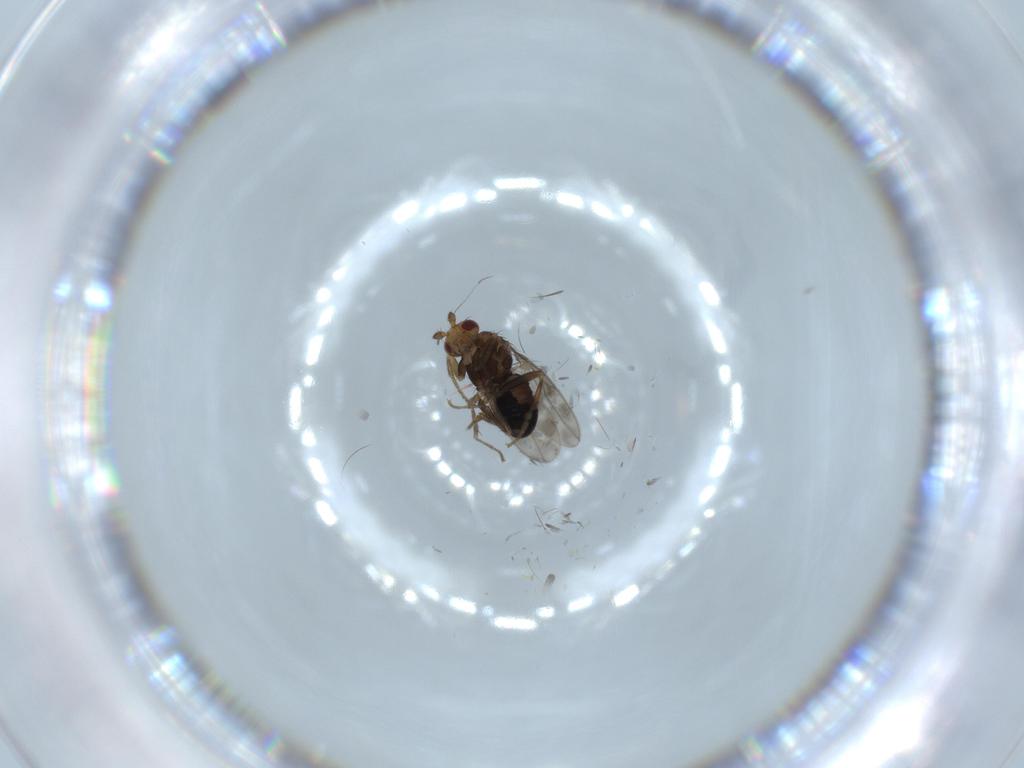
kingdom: Animalia
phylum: Arthropoda
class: Insecta
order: Diptera
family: Sphaeroceridae
